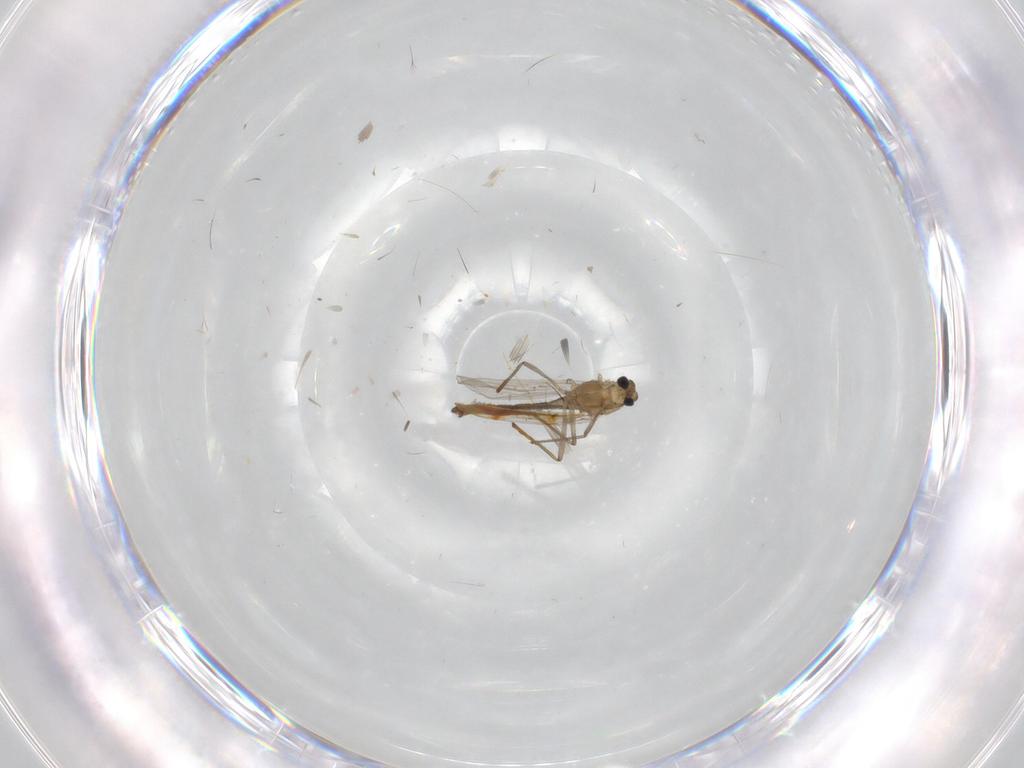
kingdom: Animalia
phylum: Arthropoda
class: Insecta
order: Diptera
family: Chironomidae
